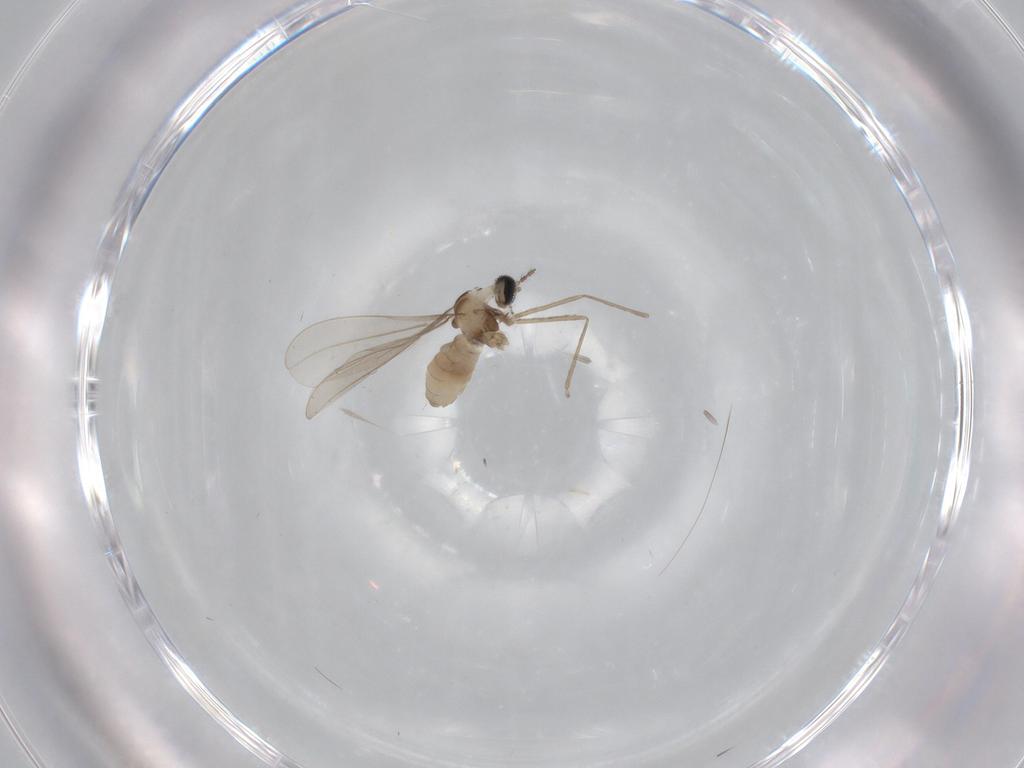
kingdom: Animalia
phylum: Arthropoda
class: Insecta
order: Diptera
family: Cecidomyiidae
